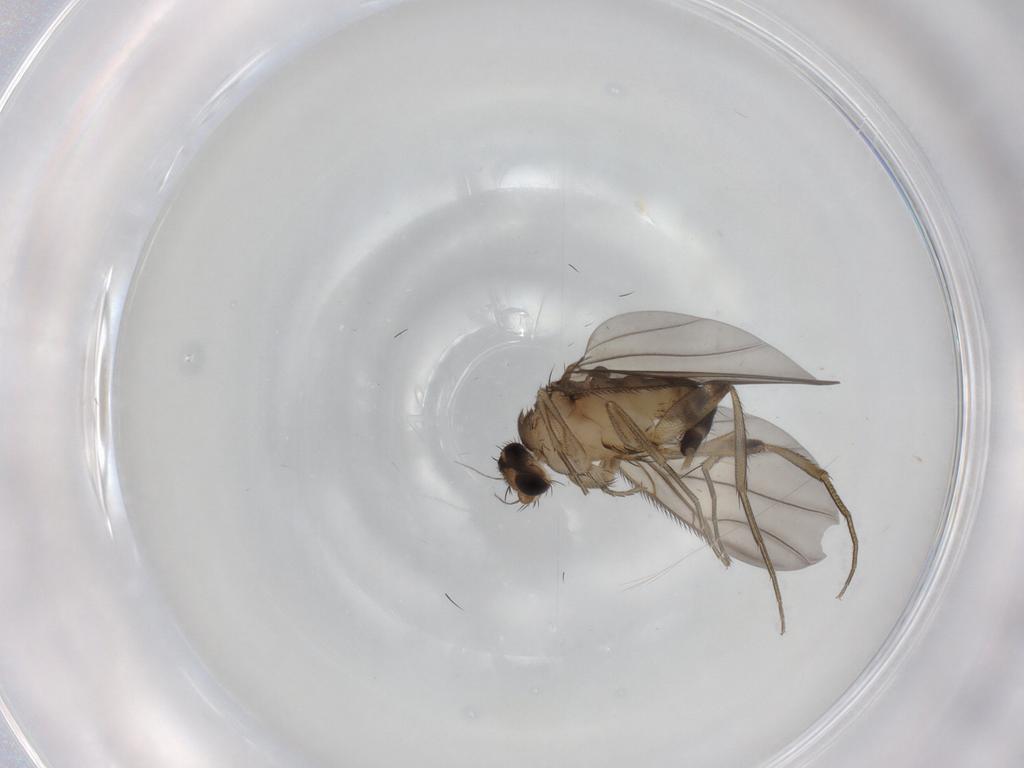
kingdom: Animalia
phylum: Arthropoda
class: Insecta
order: Diptera
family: Phoridae
